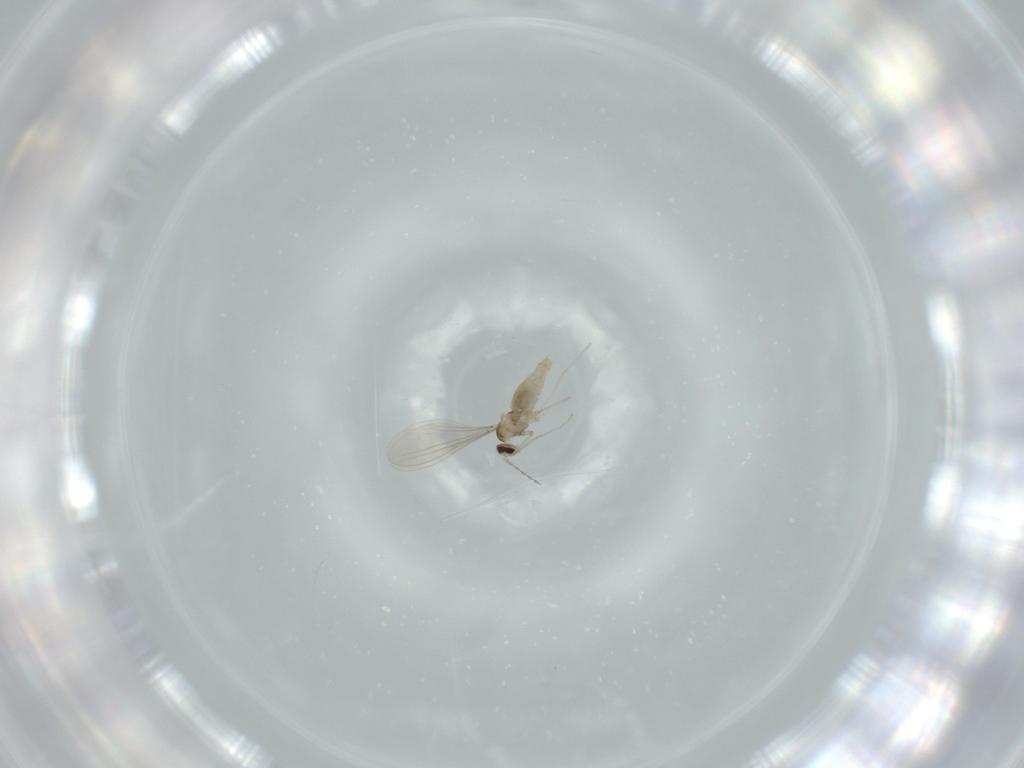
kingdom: Animalia
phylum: Arthropoda
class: Insecta
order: Diptera
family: Cecidomyiidae
